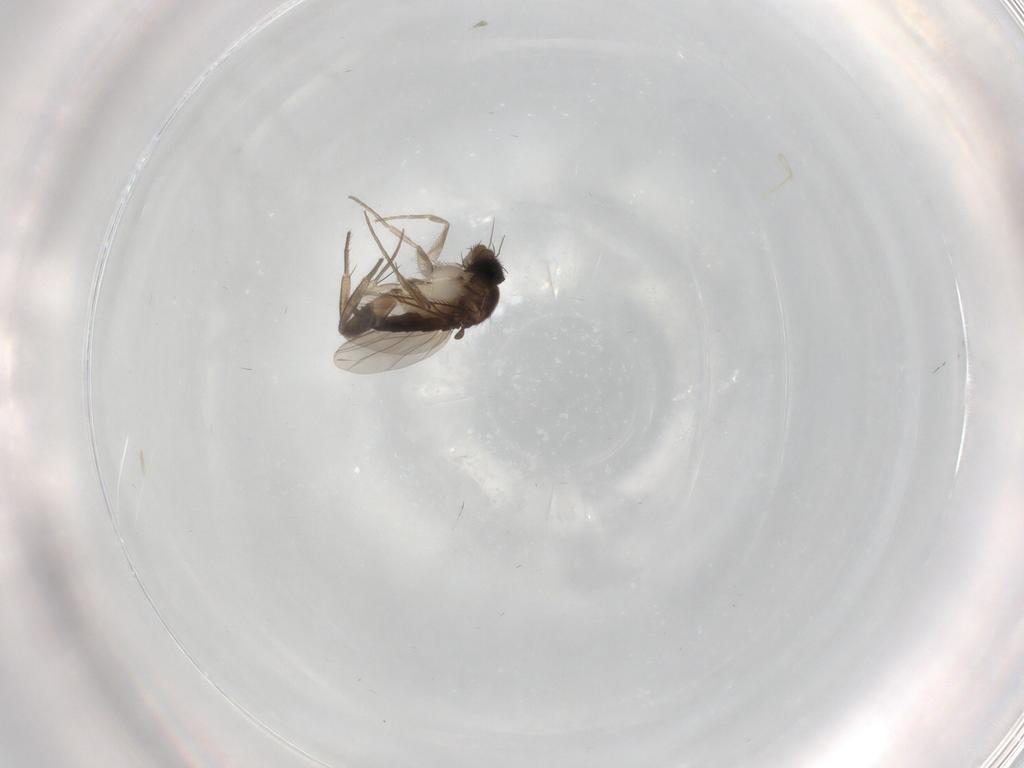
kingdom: Animalia
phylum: Arthropoda
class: Insecta
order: Diptera
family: Phoridae
